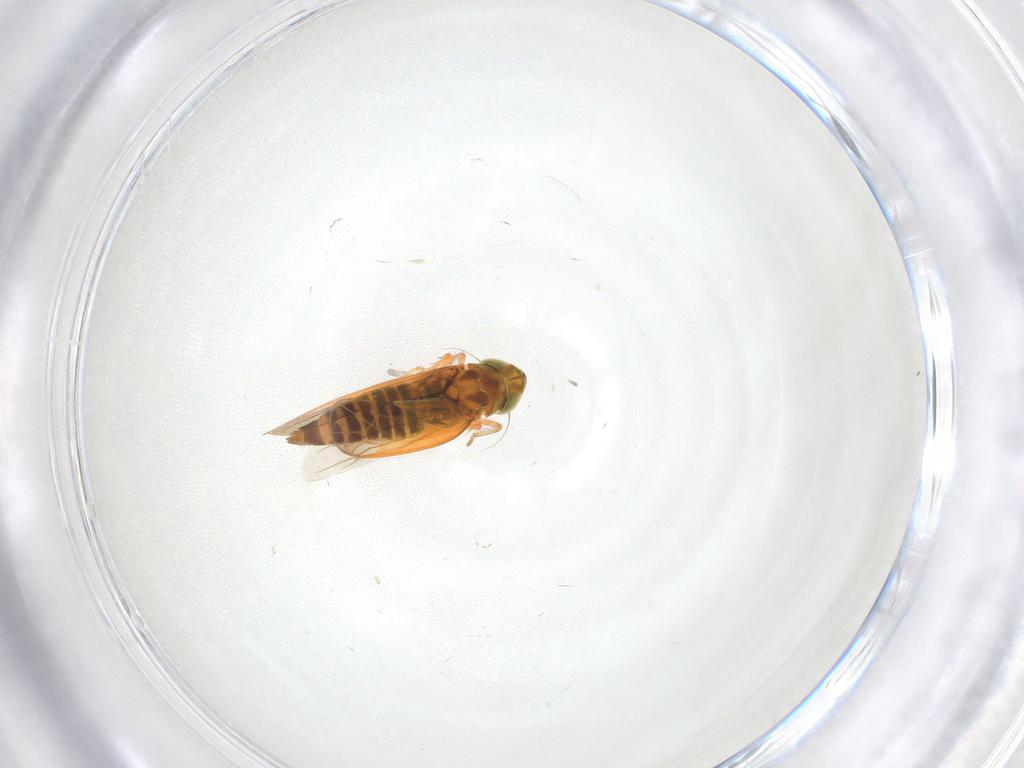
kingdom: Animalia
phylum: Arthropoda
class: Insecta
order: Hemiptera
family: Cicadellidae
